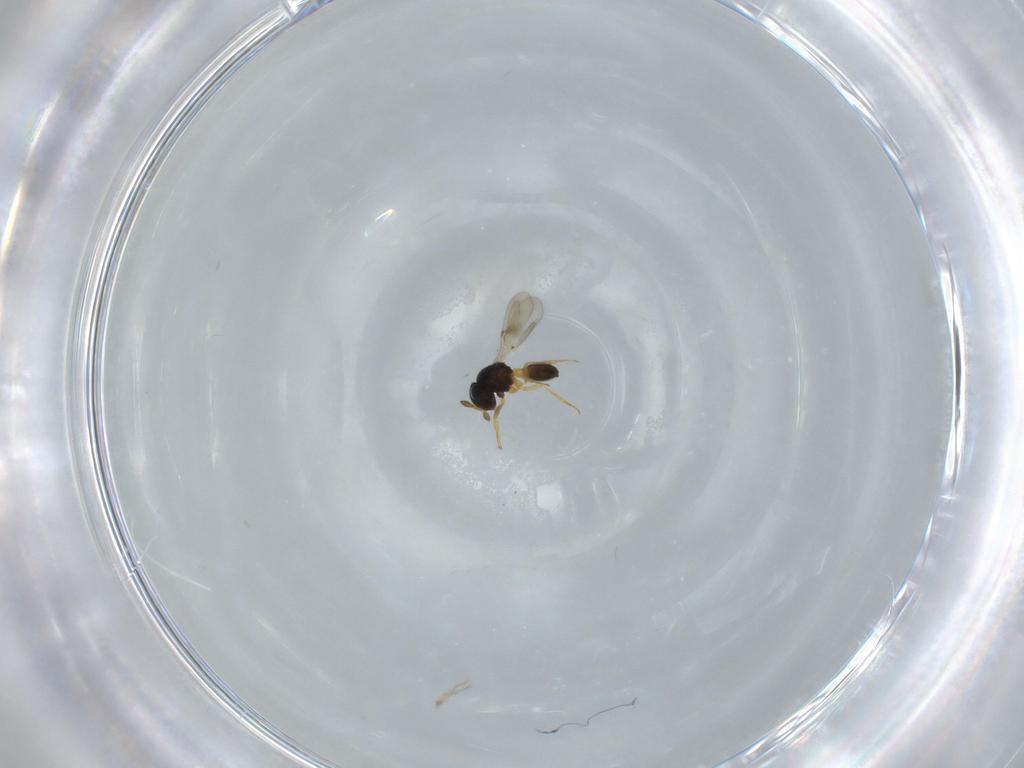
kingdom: Animalia
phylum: Arthropoda
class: Insecta
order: Hymenoptera
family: Scelionidae
